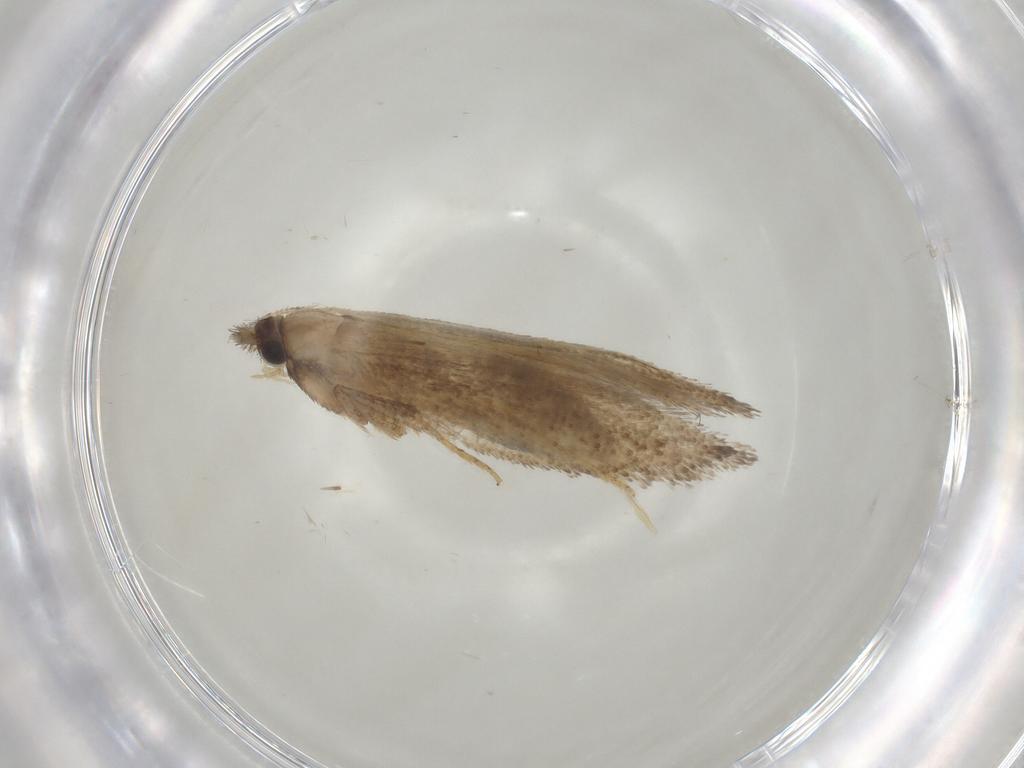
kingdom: Animalia
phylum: Arthropoda
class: Insecta
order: Lepidoptera
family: Nepticulidae
